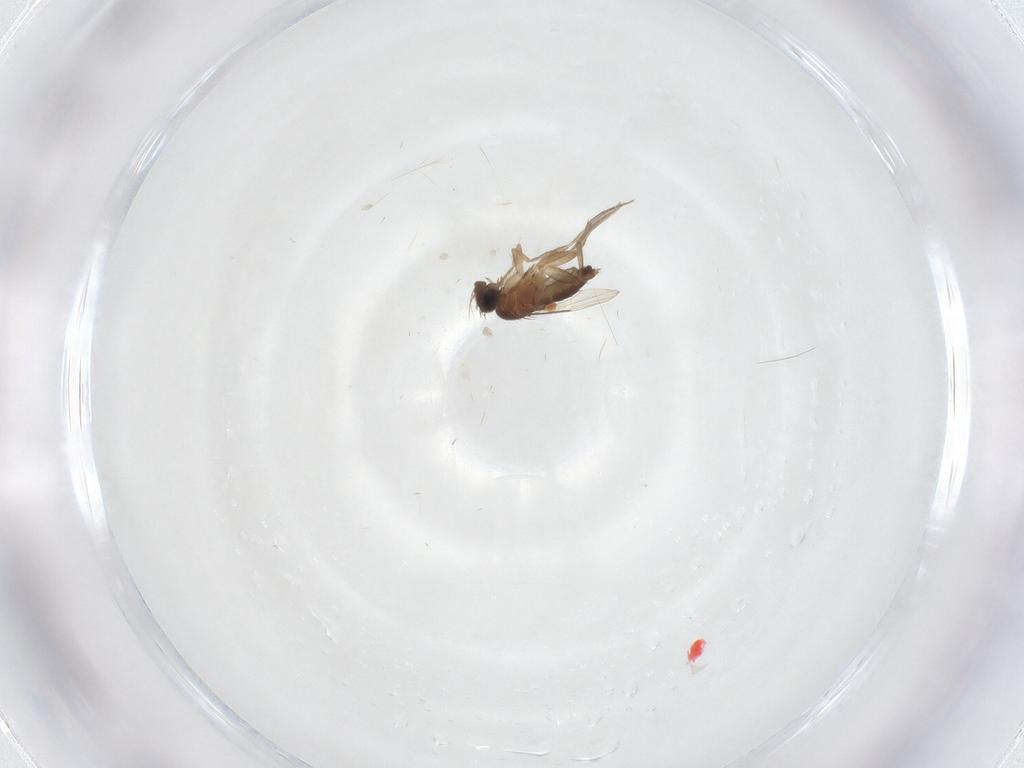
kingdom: Animalia
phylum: Arthropoda
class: Insecta
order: Diptera
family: Phoridae
